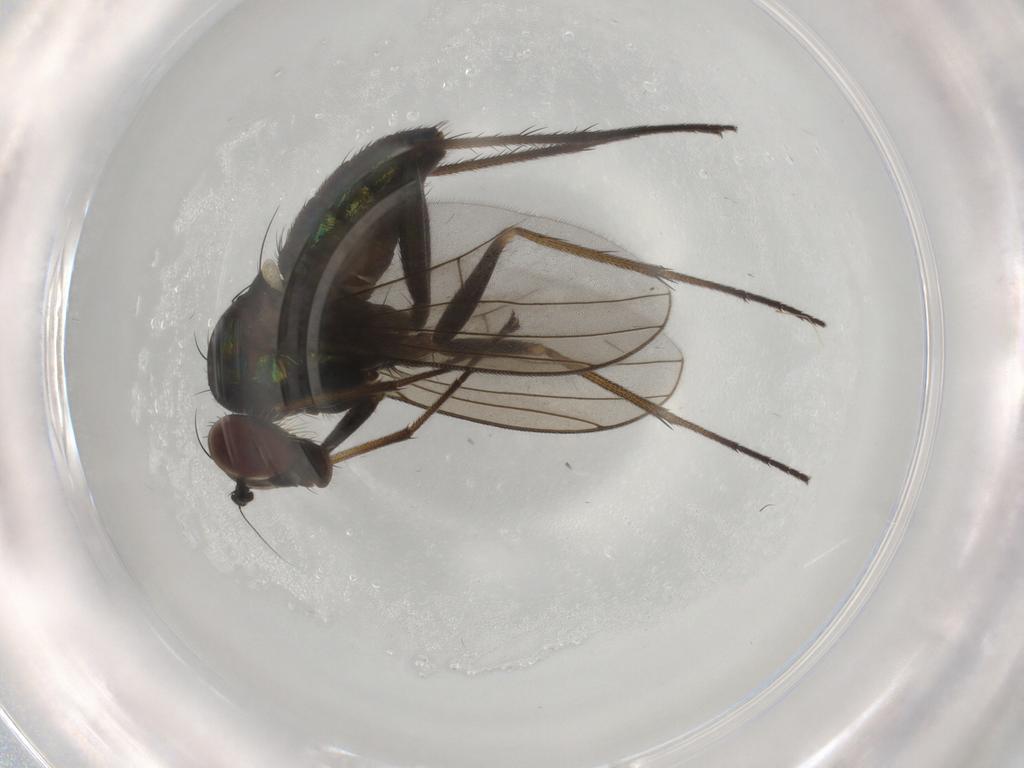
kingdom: Animalia
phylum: Arthropoda
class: Insecta
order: Diptera
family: Dolichopodidae
